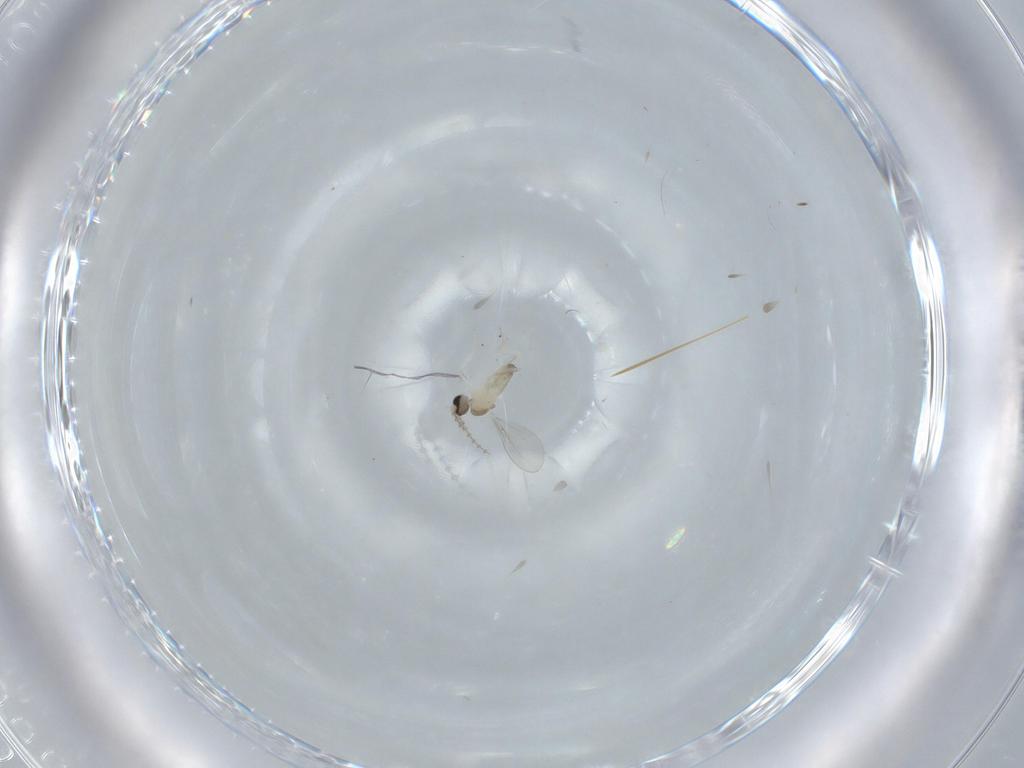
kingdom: Animalia
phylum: Arthropoda
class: Insecta
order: Diptera
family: Cecidomyiidae
